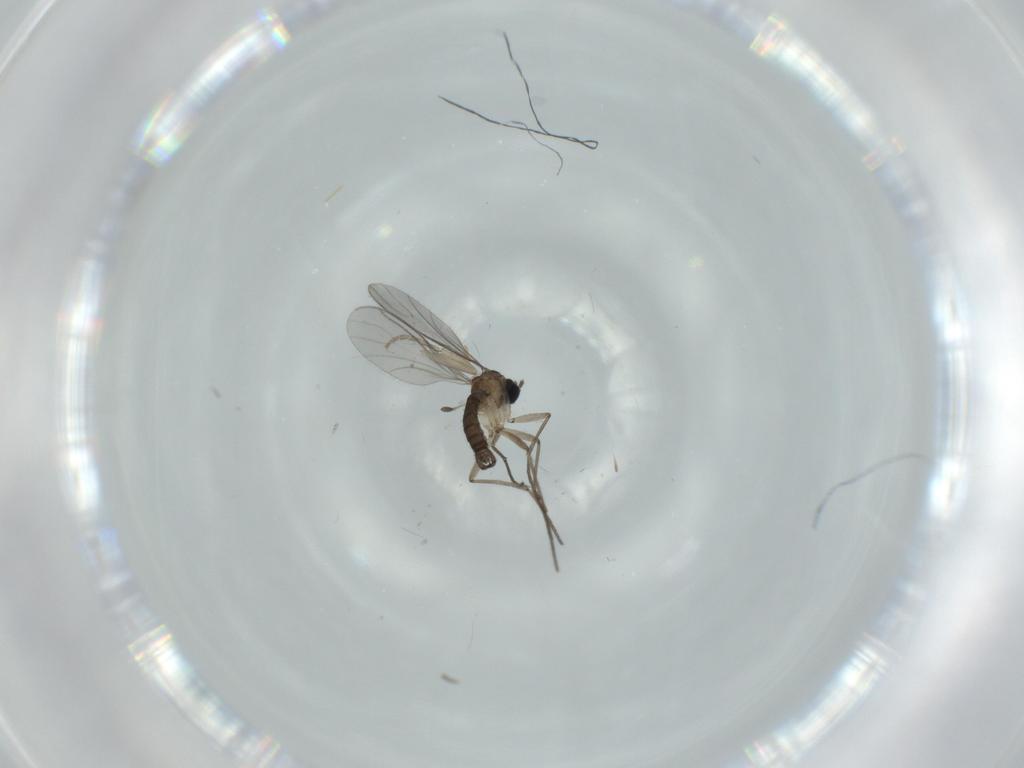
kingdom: Animalia
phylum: Arthropoda
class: Insecta
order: Diptera
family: Phoridae
